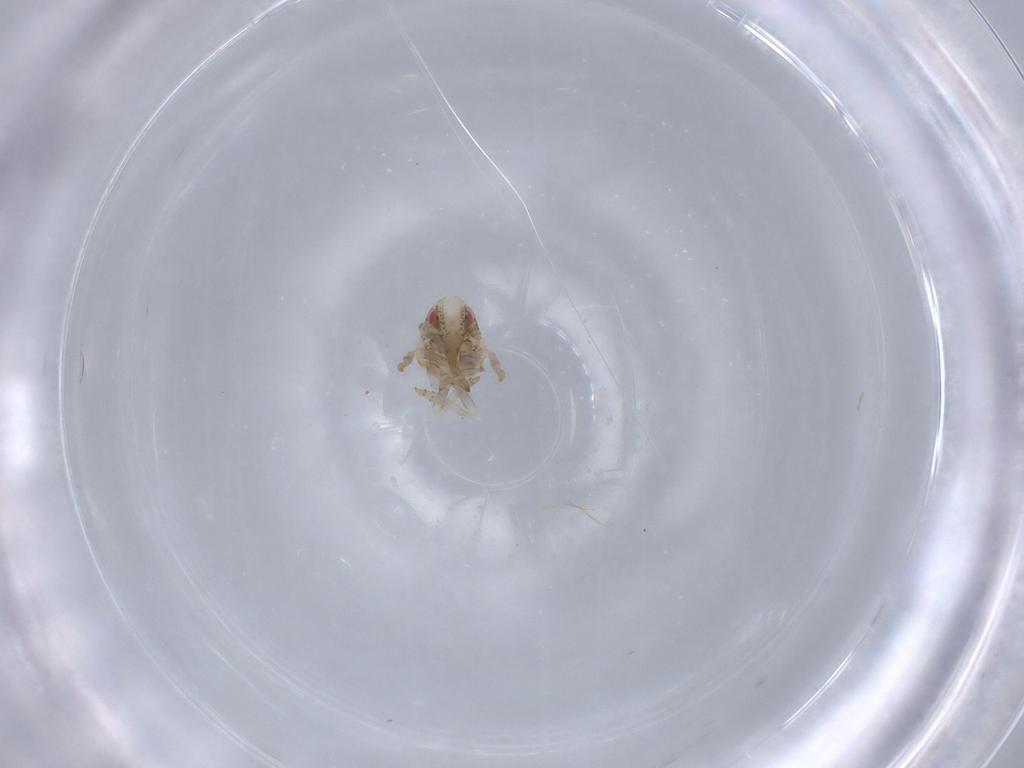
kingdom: Animalia
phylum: Arthropoda
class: Insecta
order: Hemiptera
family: Acanaloniidae
